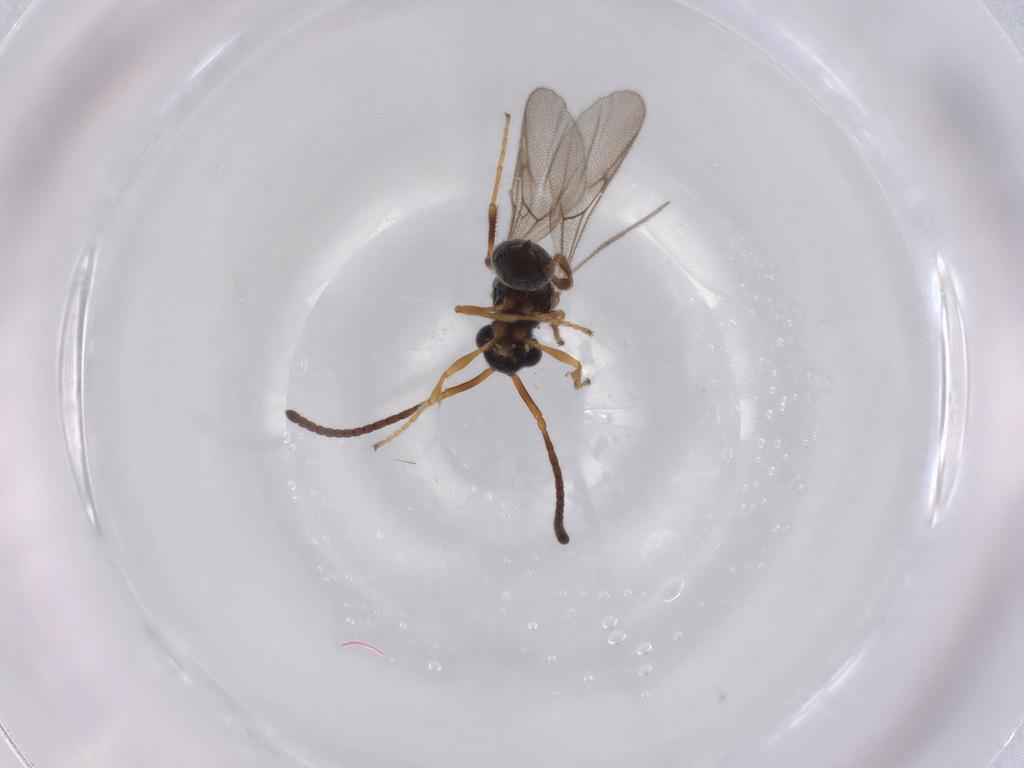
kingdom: Animalia
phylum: Arthropoda
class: Insecta
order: Hymenoptera
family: Diapriidae
